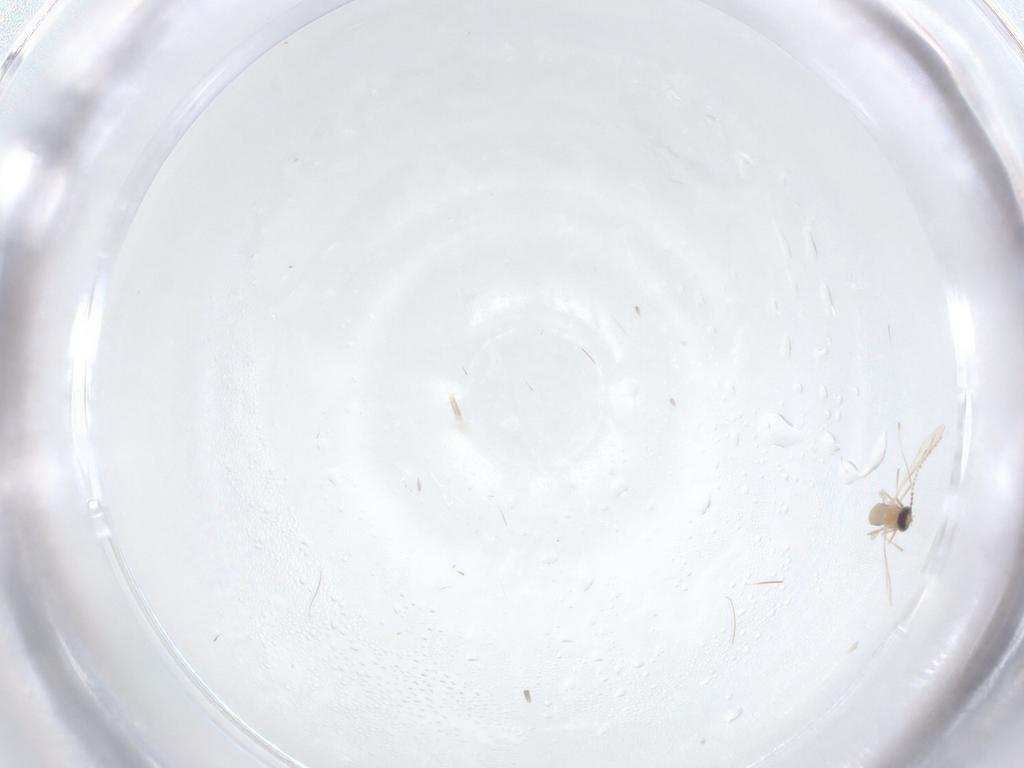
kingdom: Animalia
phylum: Arthropoda
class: Insecta
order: Diptera
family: Cecidomyiidae
